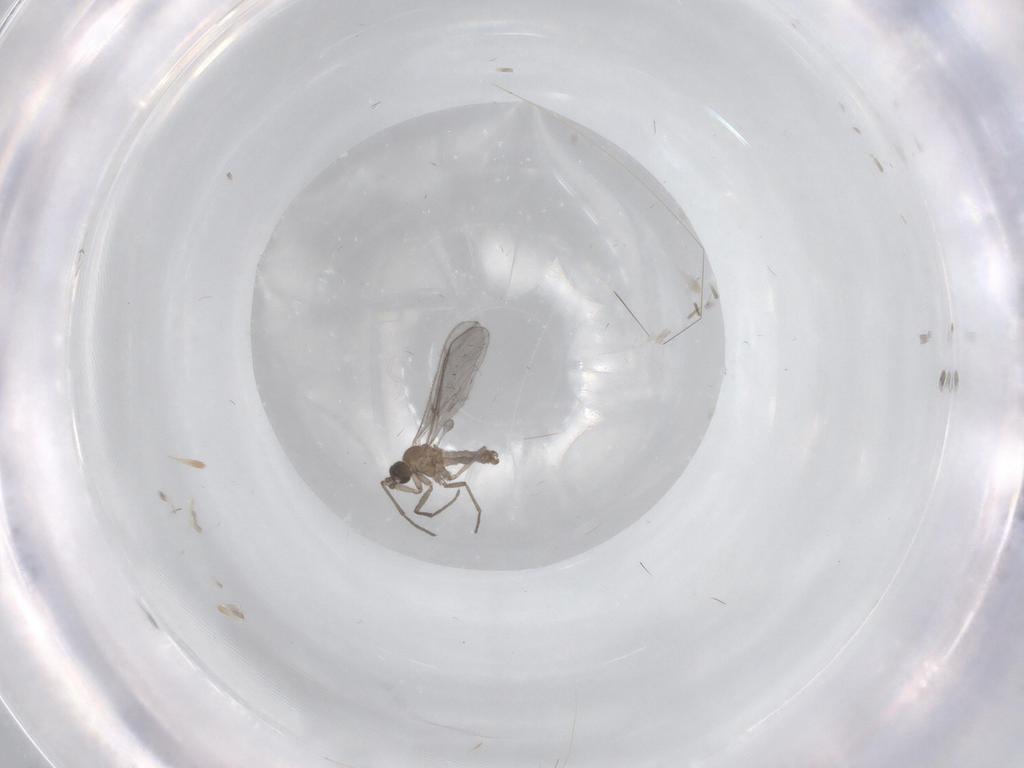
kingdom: Animalia
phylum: Arthropoda
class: Insecta
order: Diptera
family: Sciaridae
